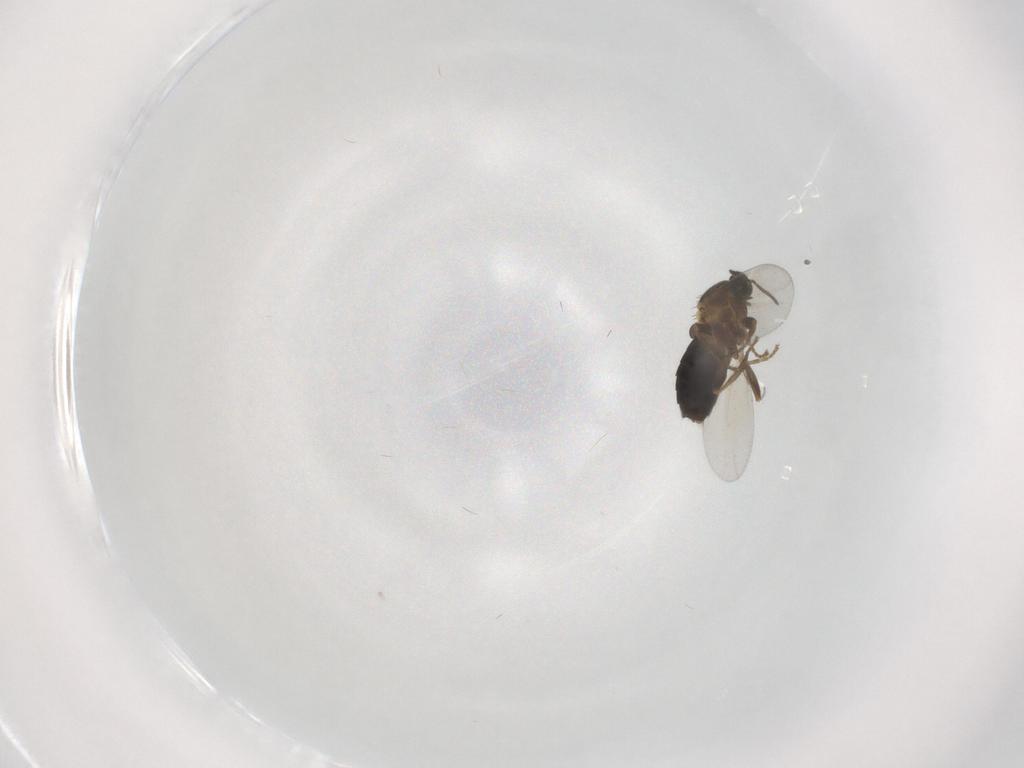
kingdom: Animalia
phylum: Arthropoda
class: Insecta
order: Diptera
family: Scatopsidae
